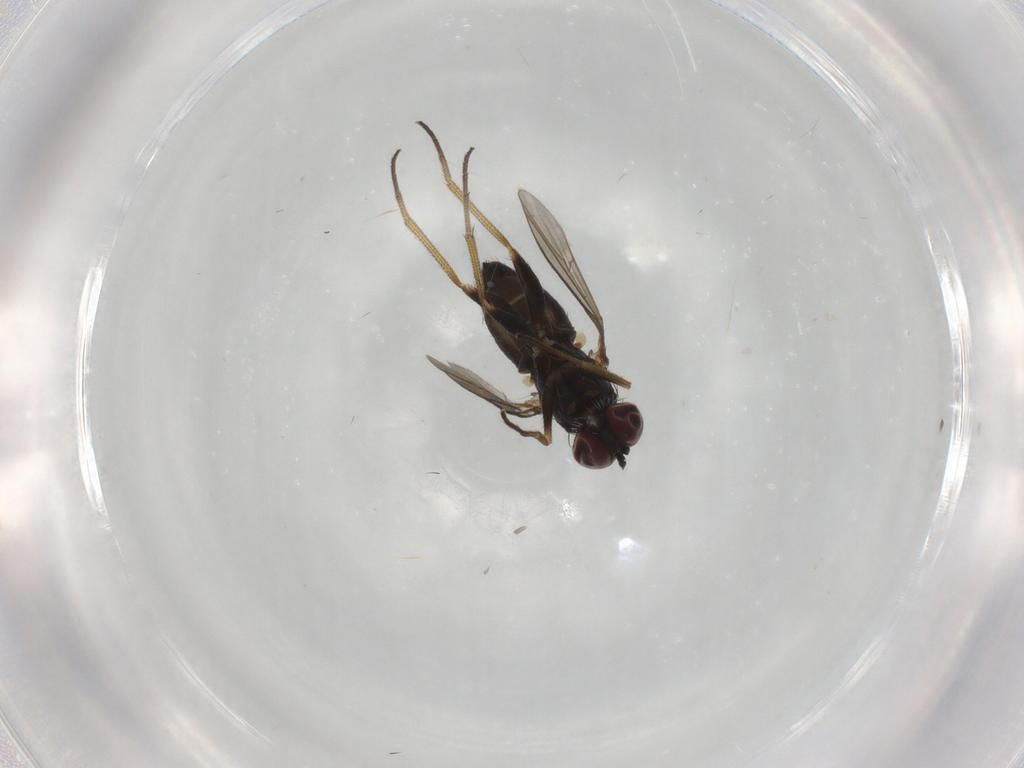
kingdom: Animalia
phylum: Arthropoda
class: Insecta
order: Diptera
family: Dolichopodidae
